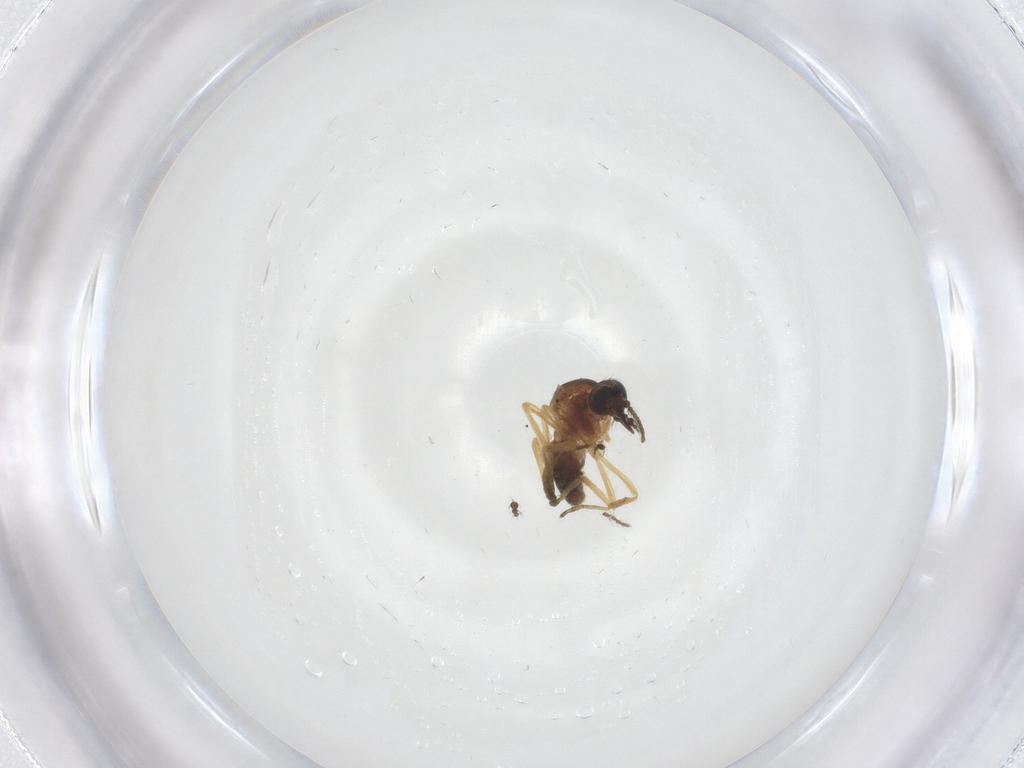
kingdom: Animalia
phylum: Arthropoda
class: Insecta
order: Diptera
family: Ceratopogonidae
